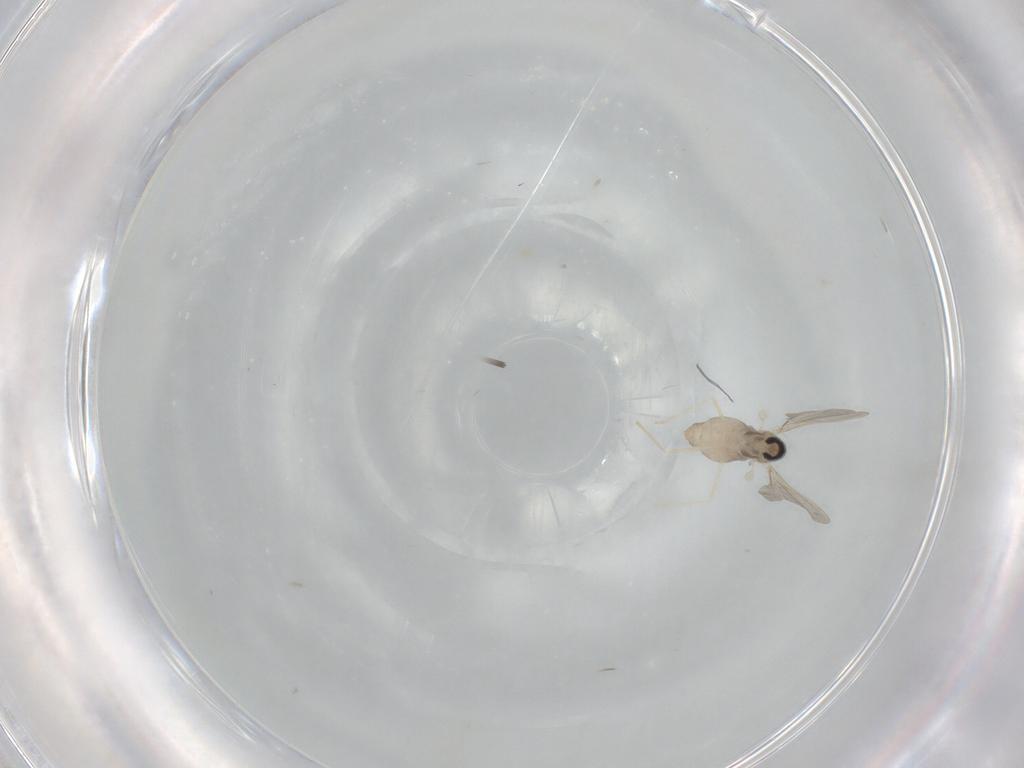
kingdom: Animalia
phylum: Arthropoda
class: Insecta
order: Diptera
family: Cecidomyiidae
